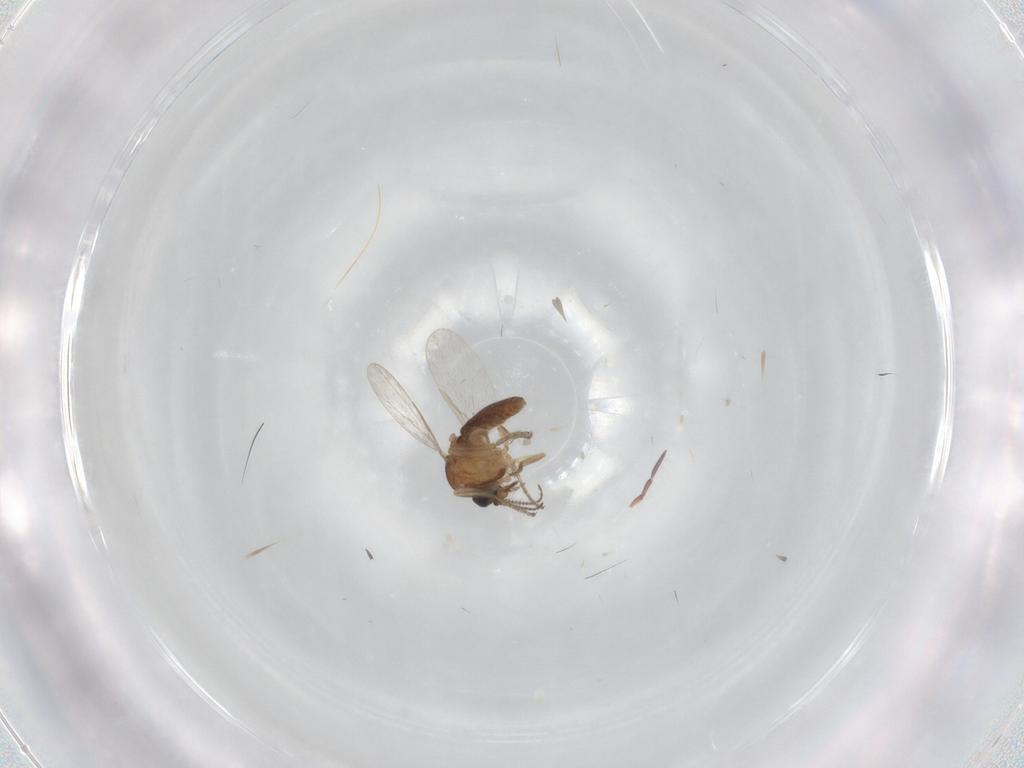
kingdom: Animalia
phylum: Arthropoda
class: Insecta
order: Diptera
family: Ceratopogonidae
